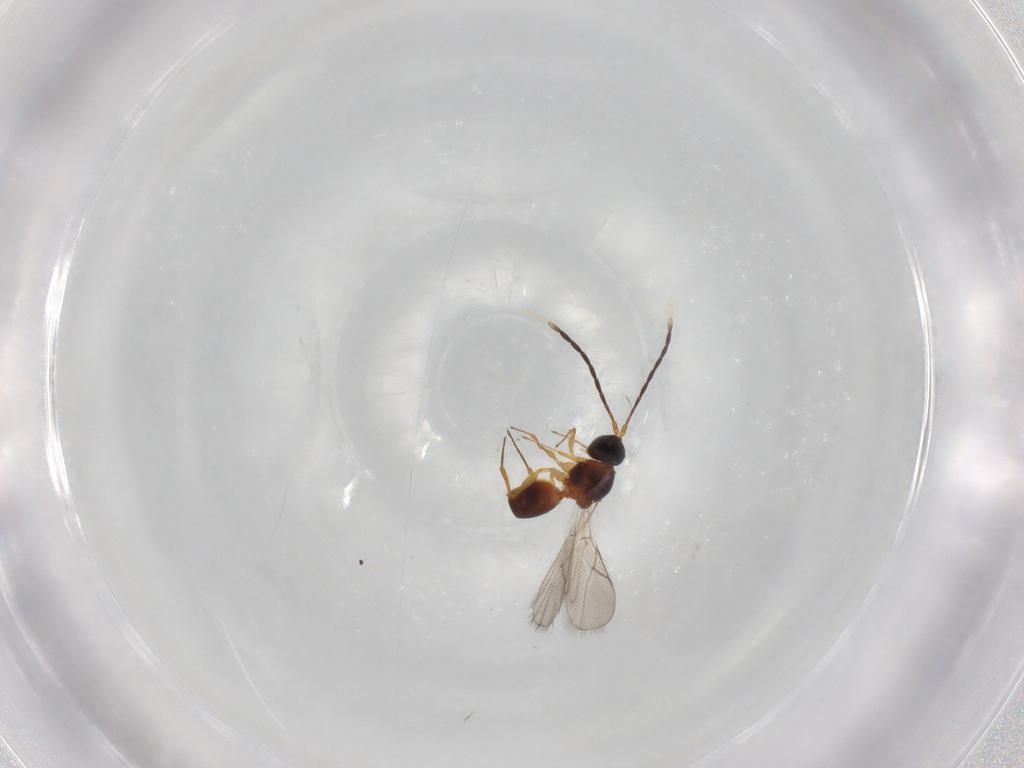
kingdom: Animalia
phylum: Arthropoda
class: Insecta
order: Hymenoptera
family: Figitidae
